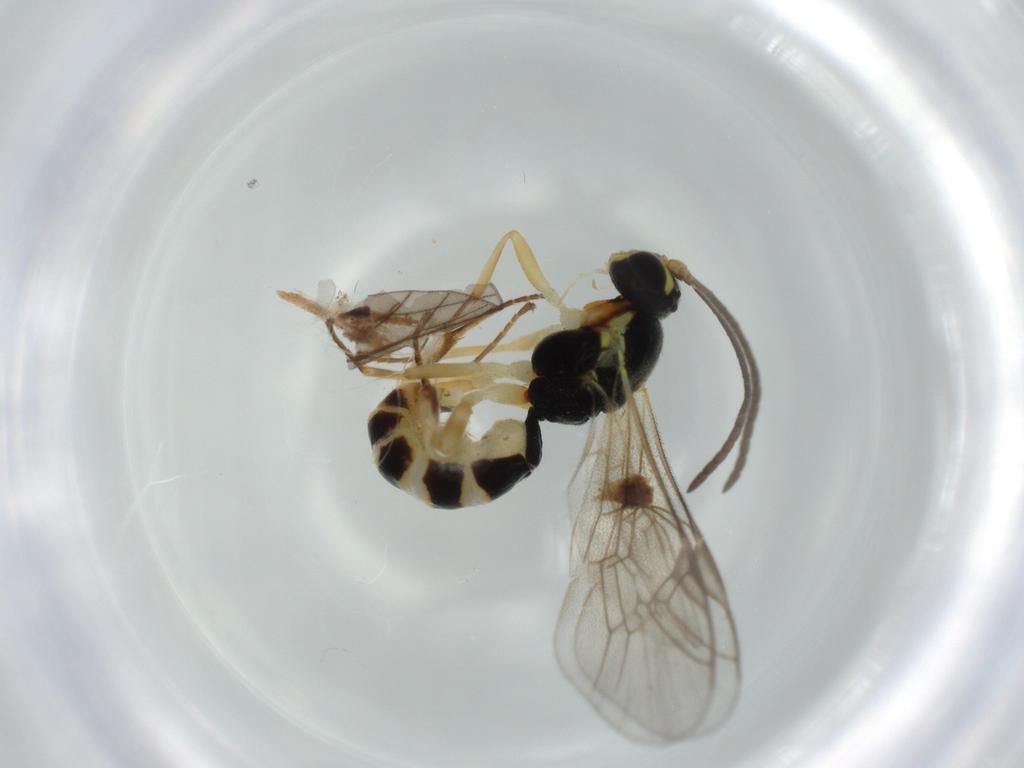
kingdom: Animalia
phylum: Arthropoda
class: Insecta
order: Hymenoptera
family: Ichneumonidae
